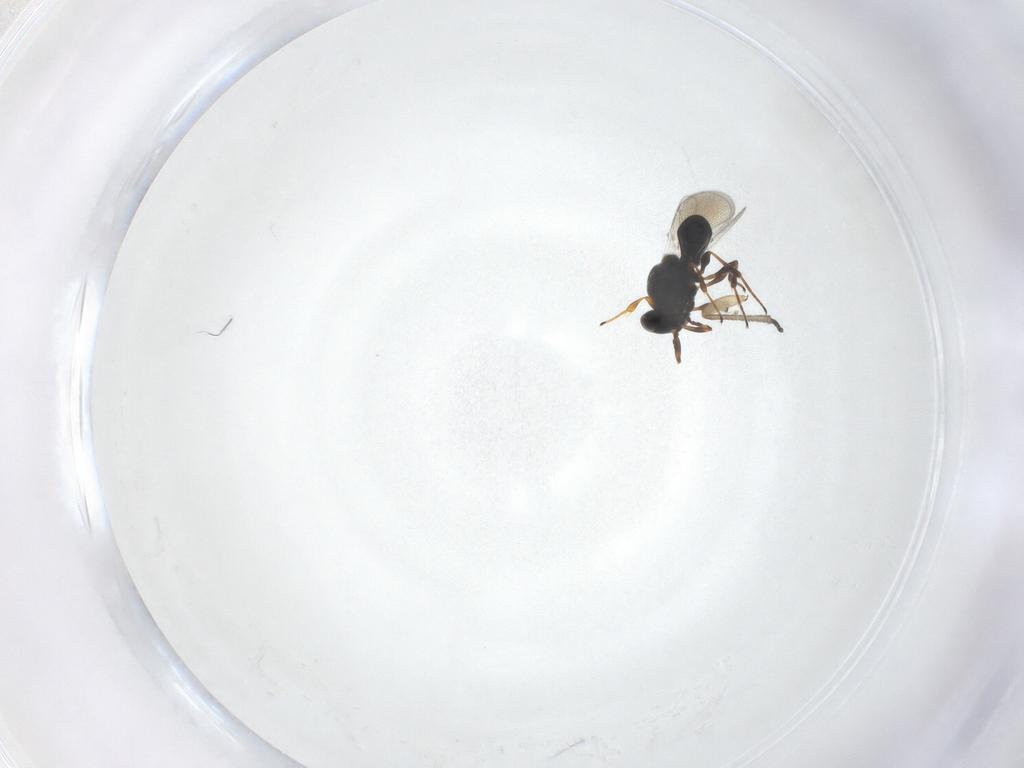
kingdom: Animalia
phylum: Arthropoda
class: Insecta
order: Hymenoptera
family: Platygastridae
